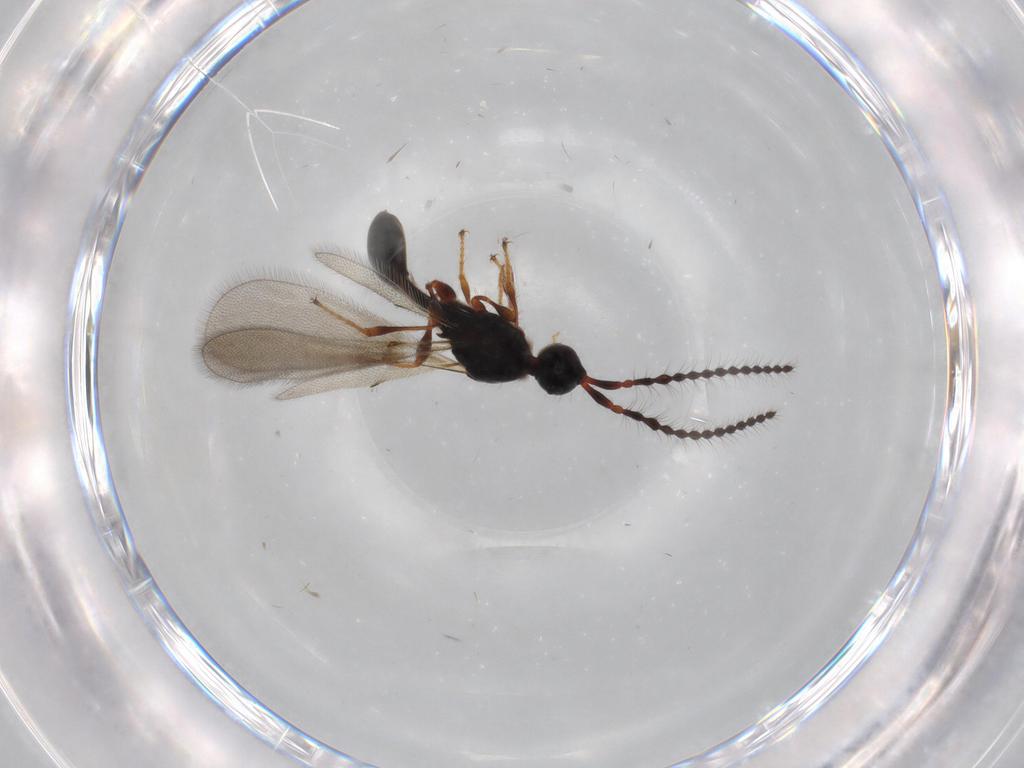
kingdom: Animalia
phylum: Arthropoda
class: Insecta
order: Hymenoptera
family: Diapriidae
